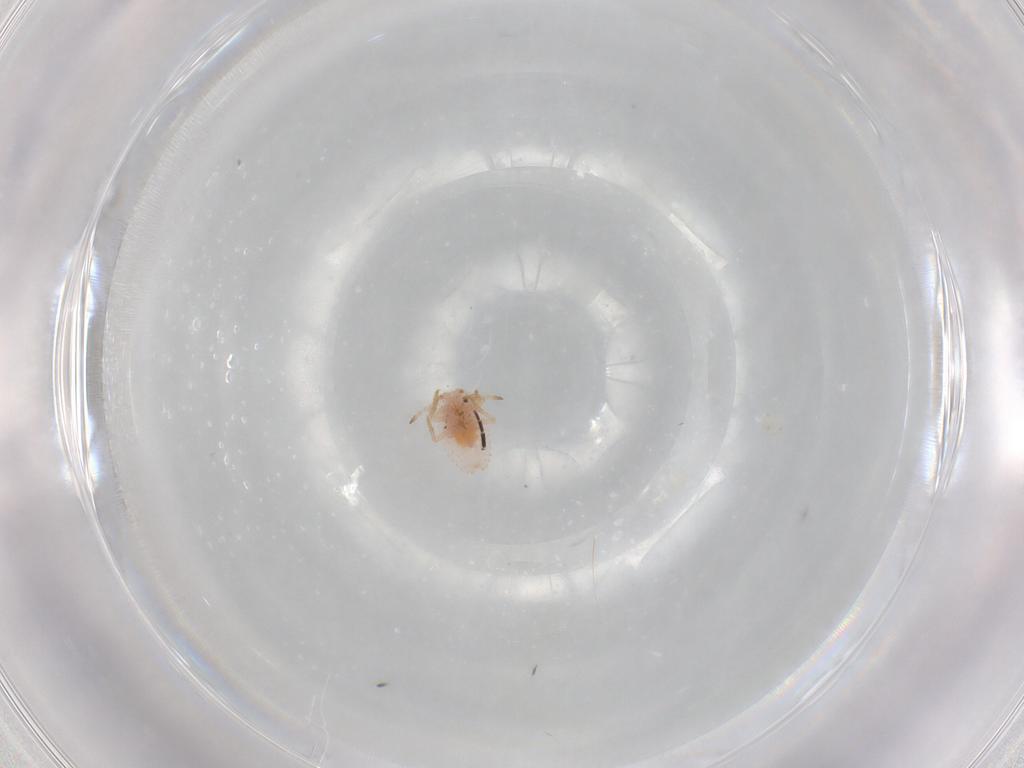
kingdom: Animalia
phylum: Arthropoda
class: Insecta
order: Hemiptera
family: Coccoidea_incertae_sedis
